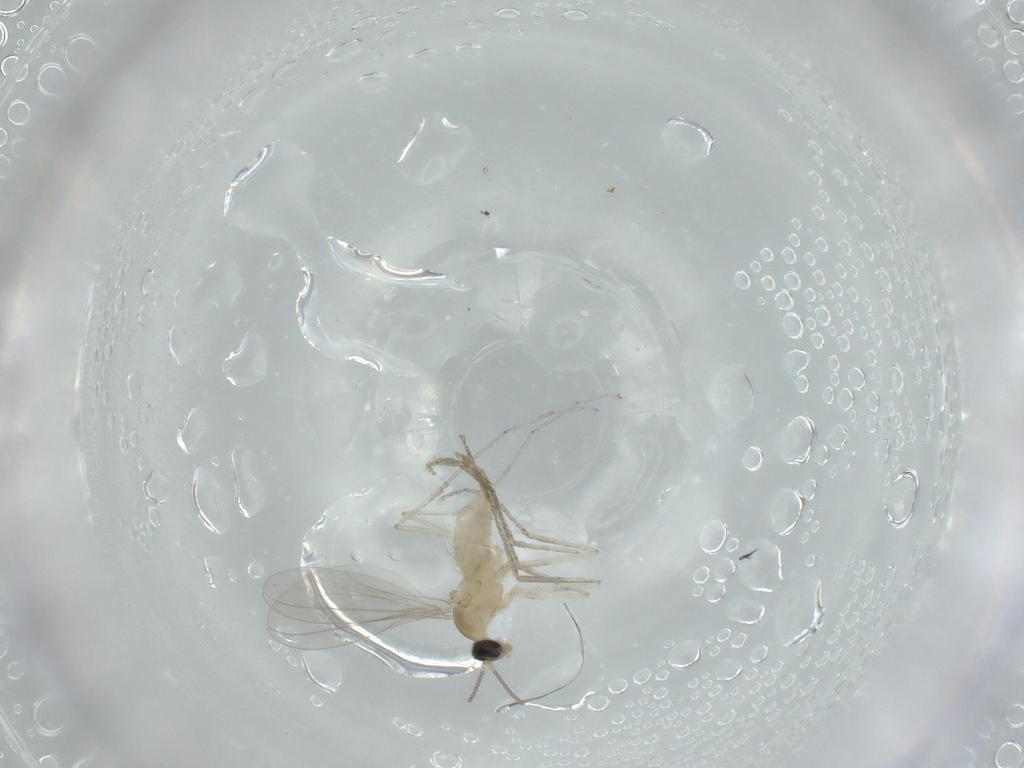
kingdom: Animalia
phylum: Arthropoda
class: Insecta
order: Diptera
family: Cecidomyiidae
